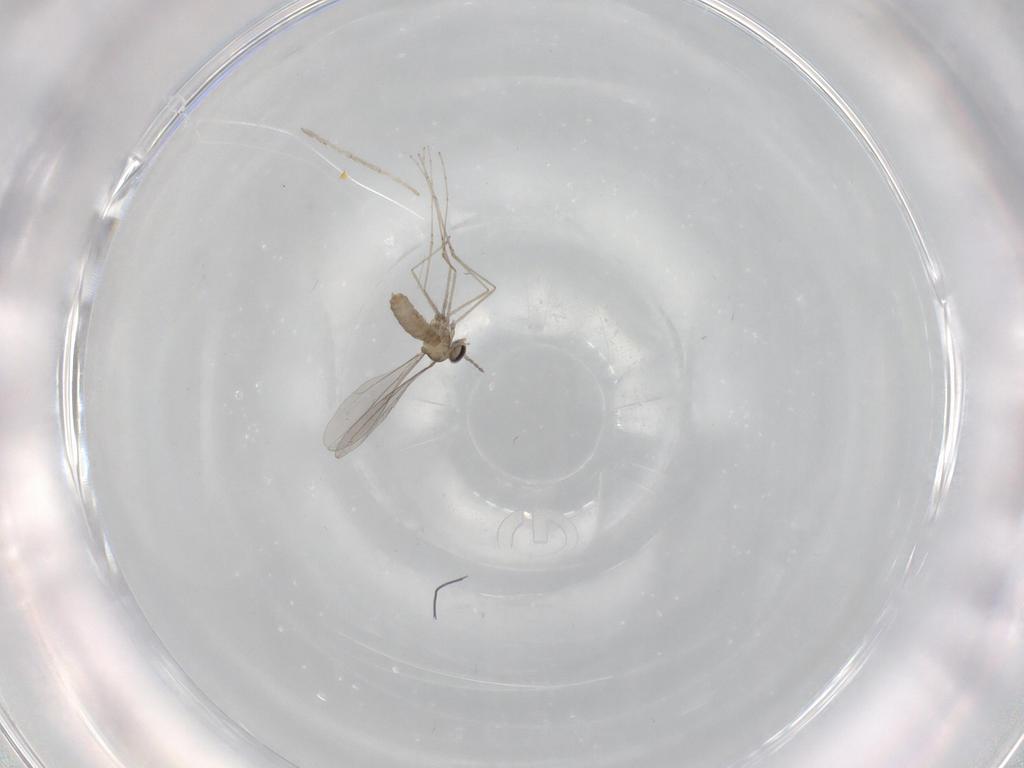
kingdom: Animalia
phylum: Arthropoda
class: Insecta
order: Diptera
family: Chironomidae
